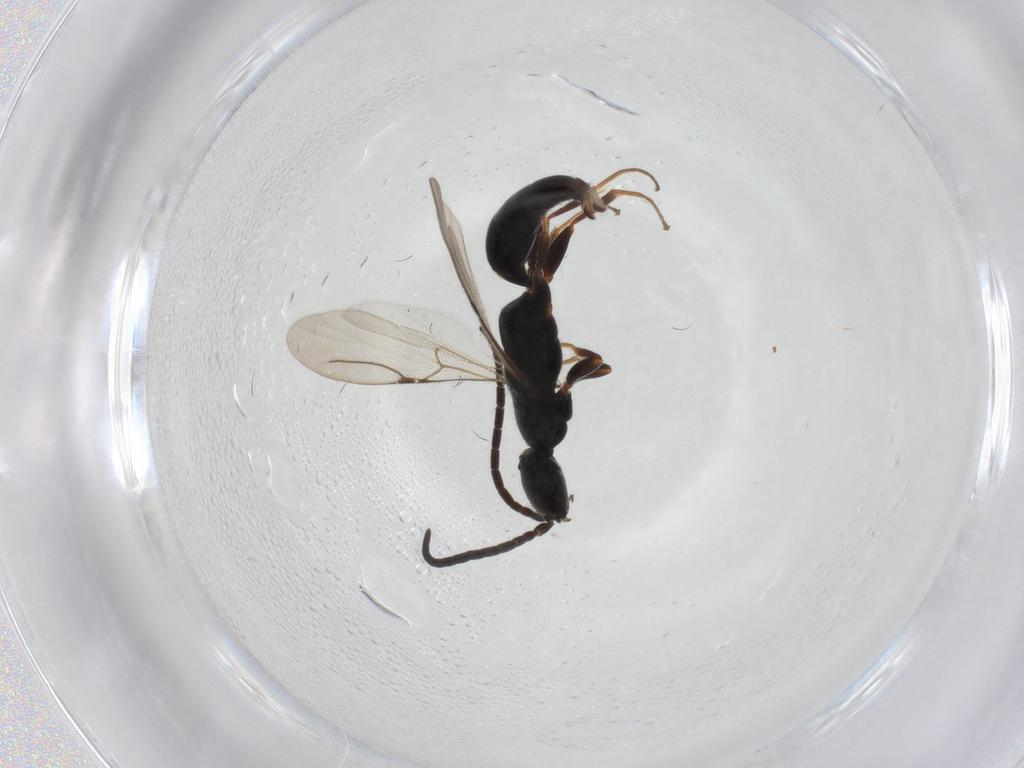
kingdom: Animalia
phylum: Arthropoda
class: Insecta
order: Hymenoptera
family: Bethylidae
